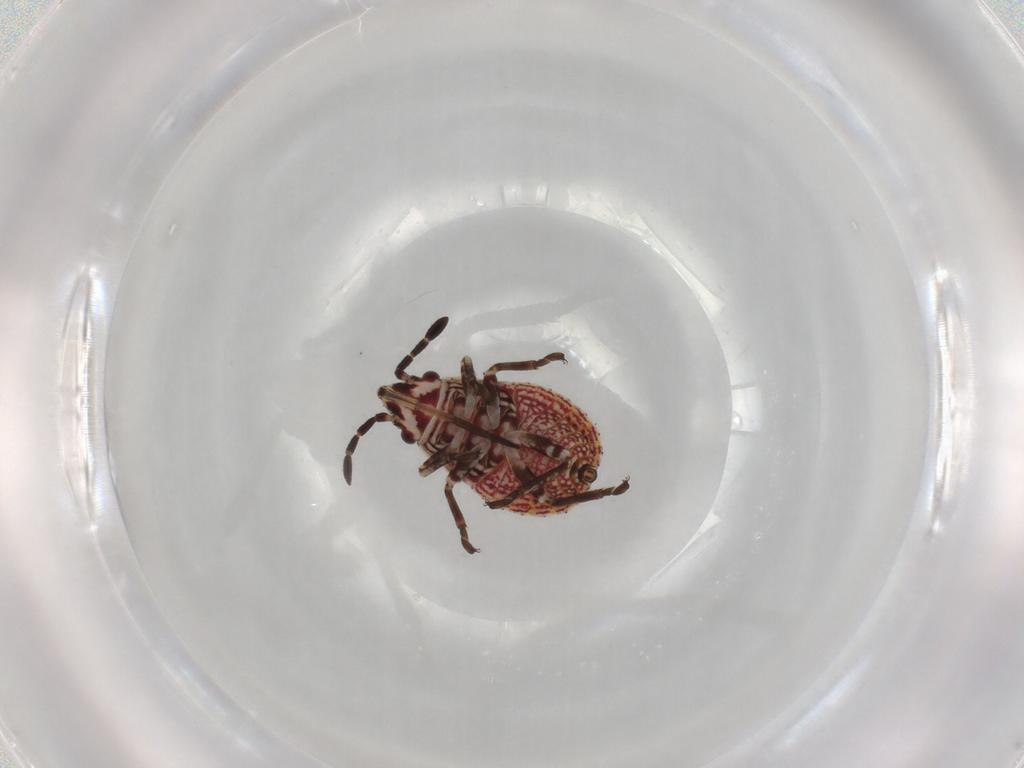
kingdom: Animalia
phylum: Arthropoda
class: Insecta
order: Hemiptera
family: Lygaeidae
